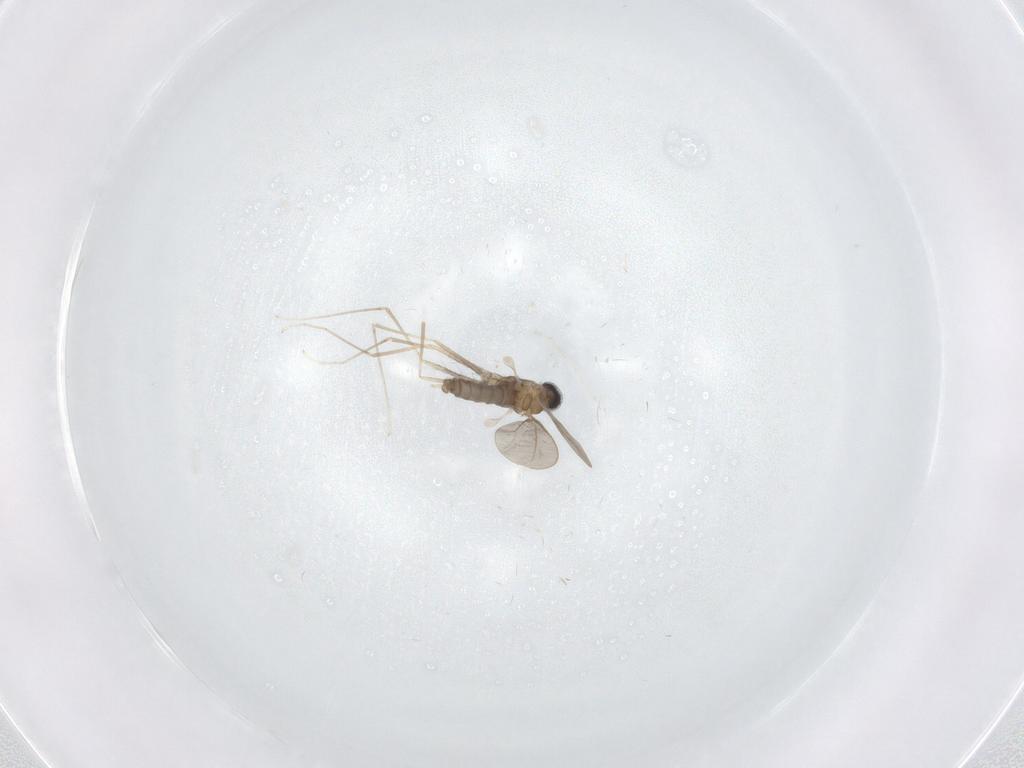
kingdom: Animalia
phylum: Arthropoda
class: Insecta
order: Diptera
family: Cecidomyiidae
